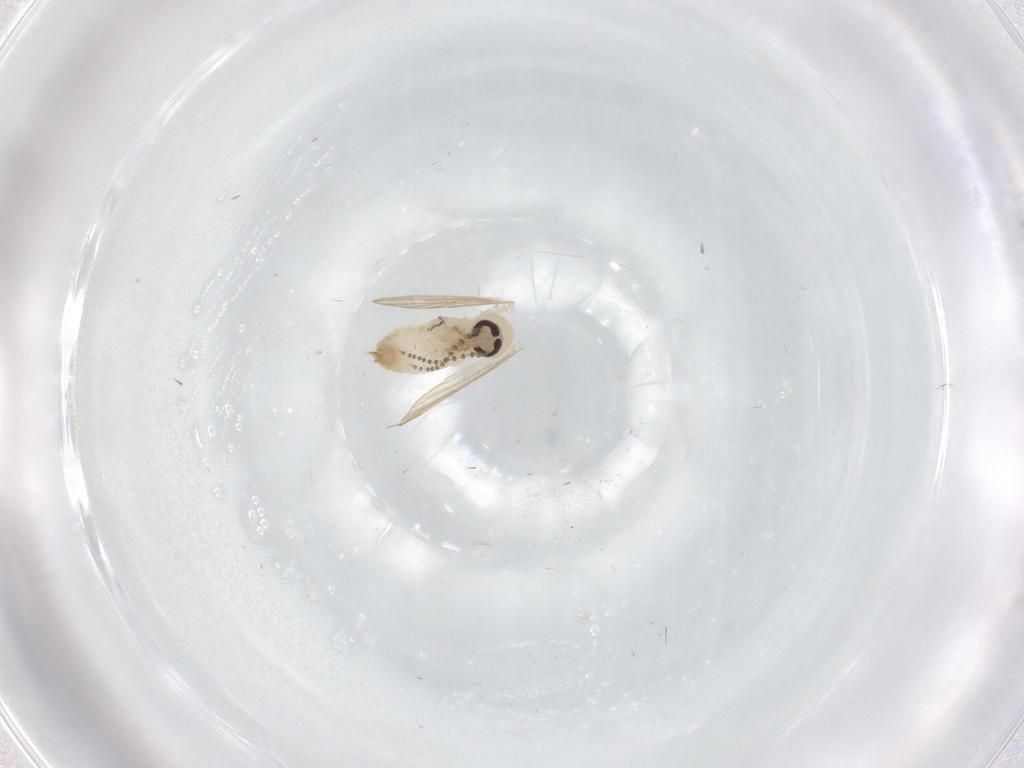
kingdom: Animalia
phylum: Arthropoda
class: Insecta
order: Diptera
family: Psychodidae
